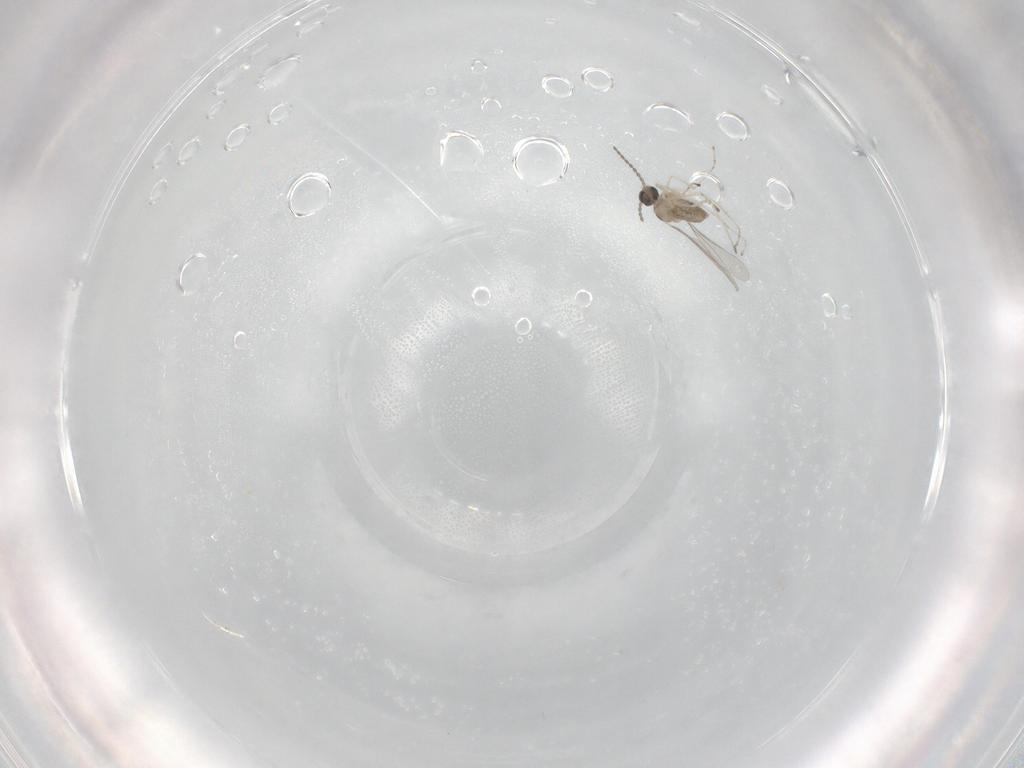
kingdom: Animalia
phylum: Arthropoda
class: Insecta
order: Diptera
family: Cecidomyiidae
